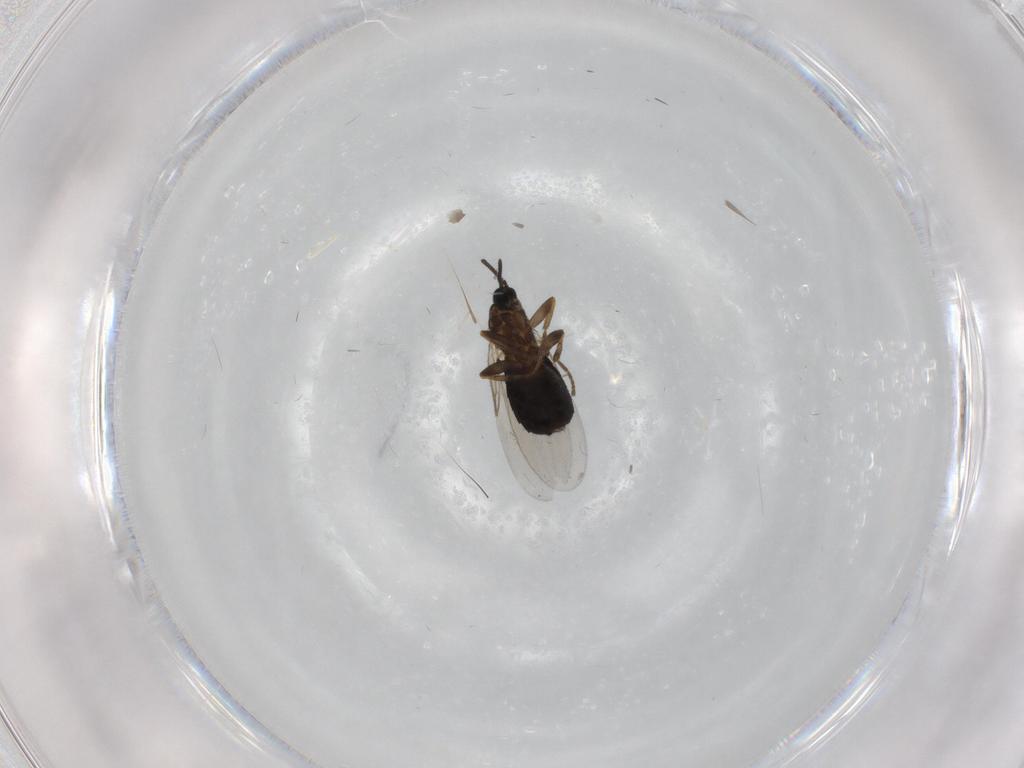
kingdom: Animalia
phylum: Arthropoda
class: Insecta
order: Diptera
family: Scatopsidae
